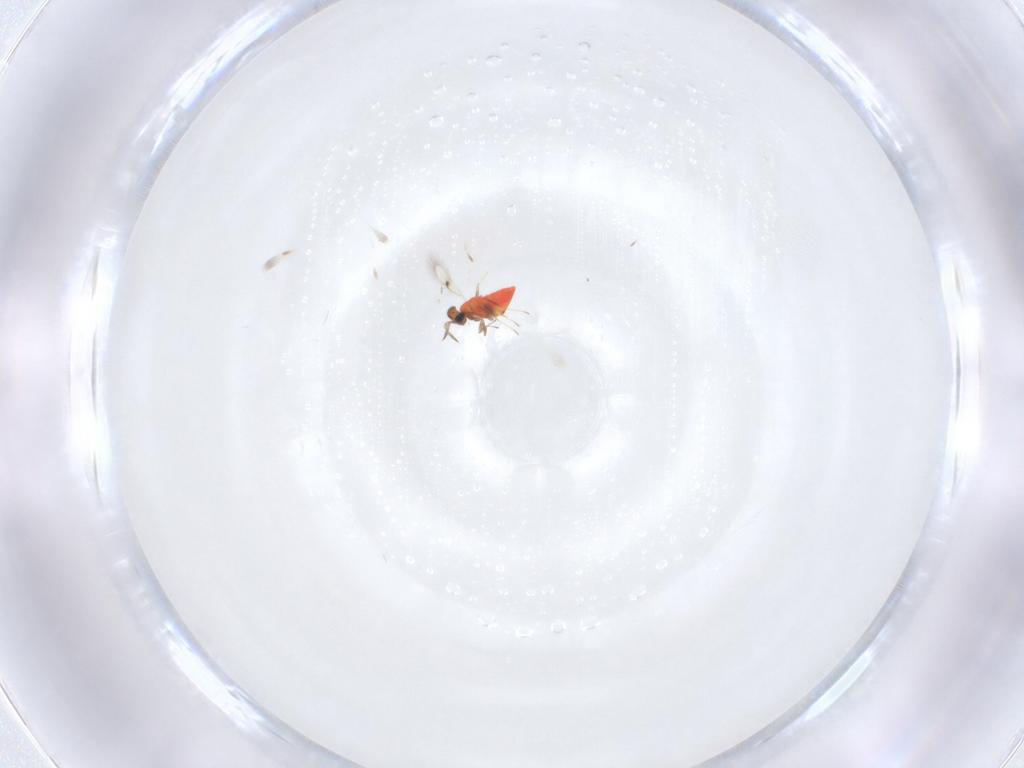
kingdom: Animalia
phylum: Arthropoda
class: Insecta
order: Hymenoptera
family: Trichogrammatidae
